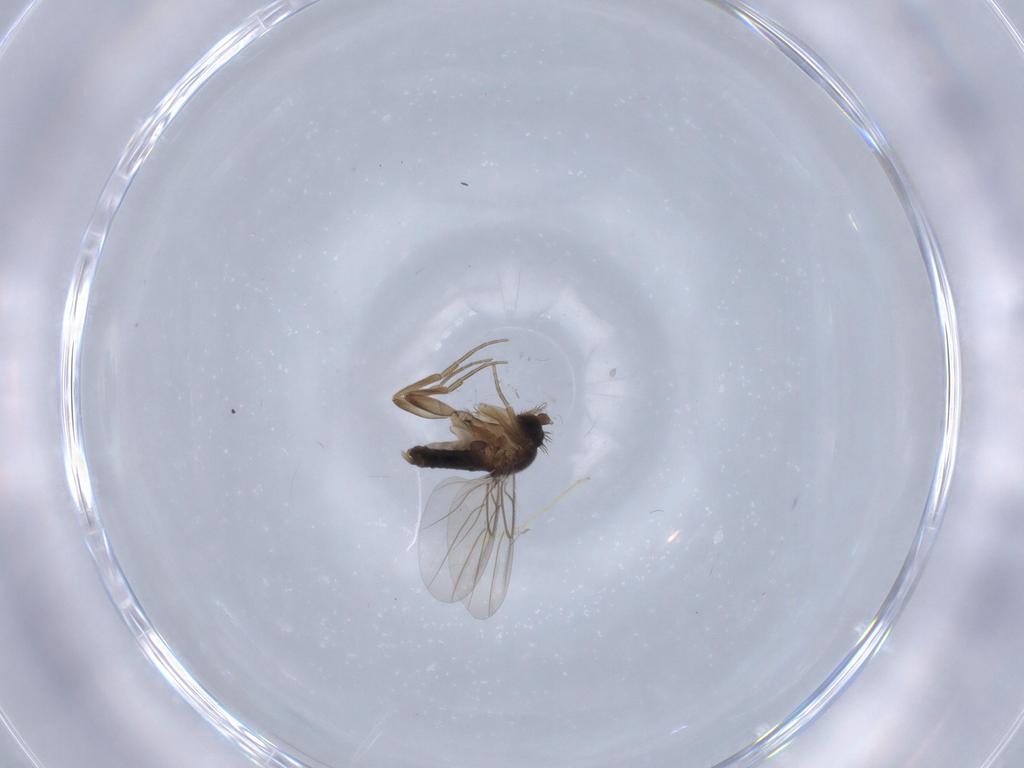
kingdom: Animalia
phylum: Arthropoda
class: Insecta
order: Diptera
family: Phoridae
